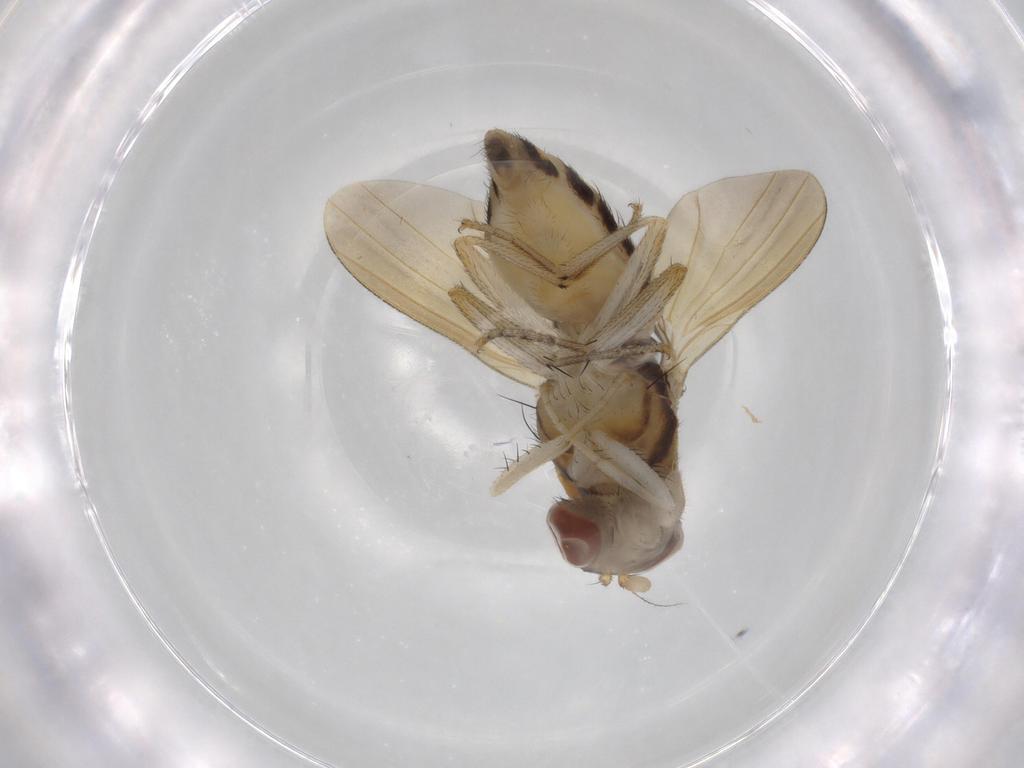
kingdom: Animalia
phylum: Arthropoda
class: Insecta
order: Diptera
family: Cecidomyiidae
